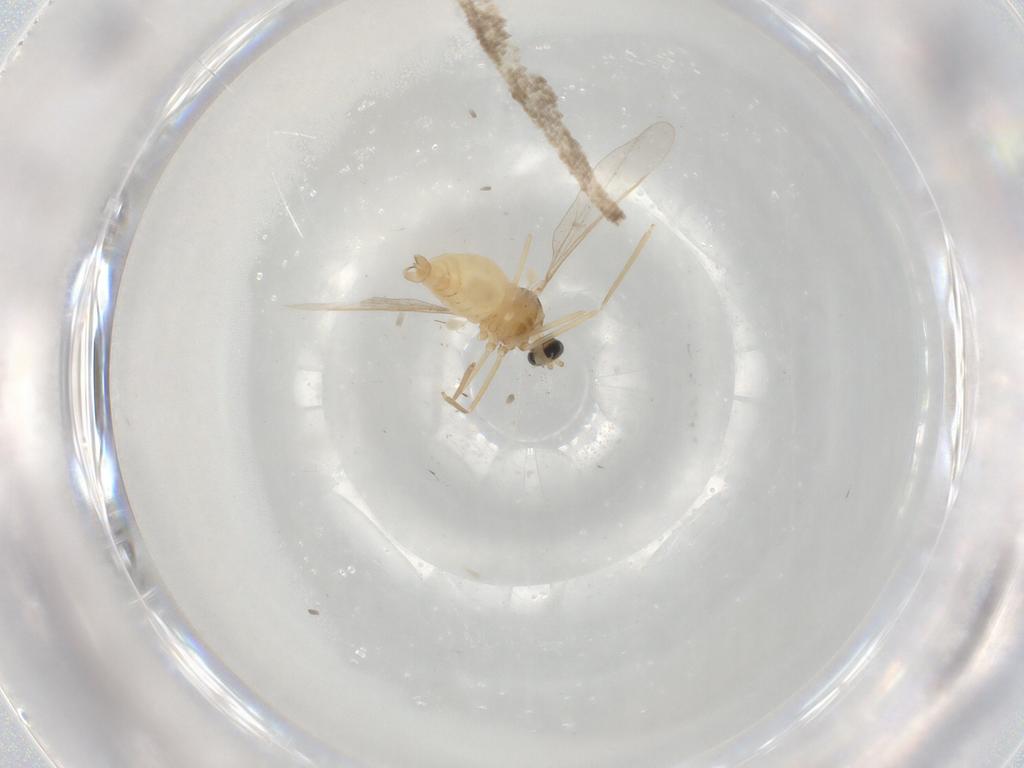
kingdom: Animalia
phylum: Arthropoda
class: Insecta
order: Diptera
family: Cecidomyiidae
